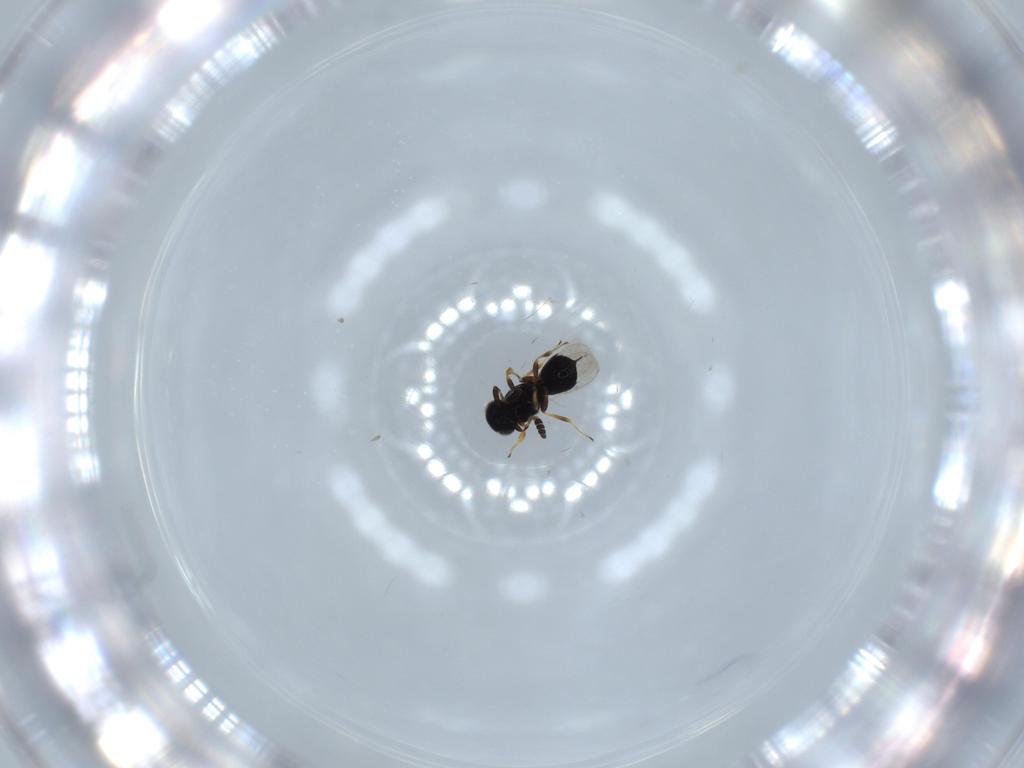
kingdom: Animalia
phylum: Arthropoda
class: Insecta
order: Hymenoptera
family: Scelionidae
